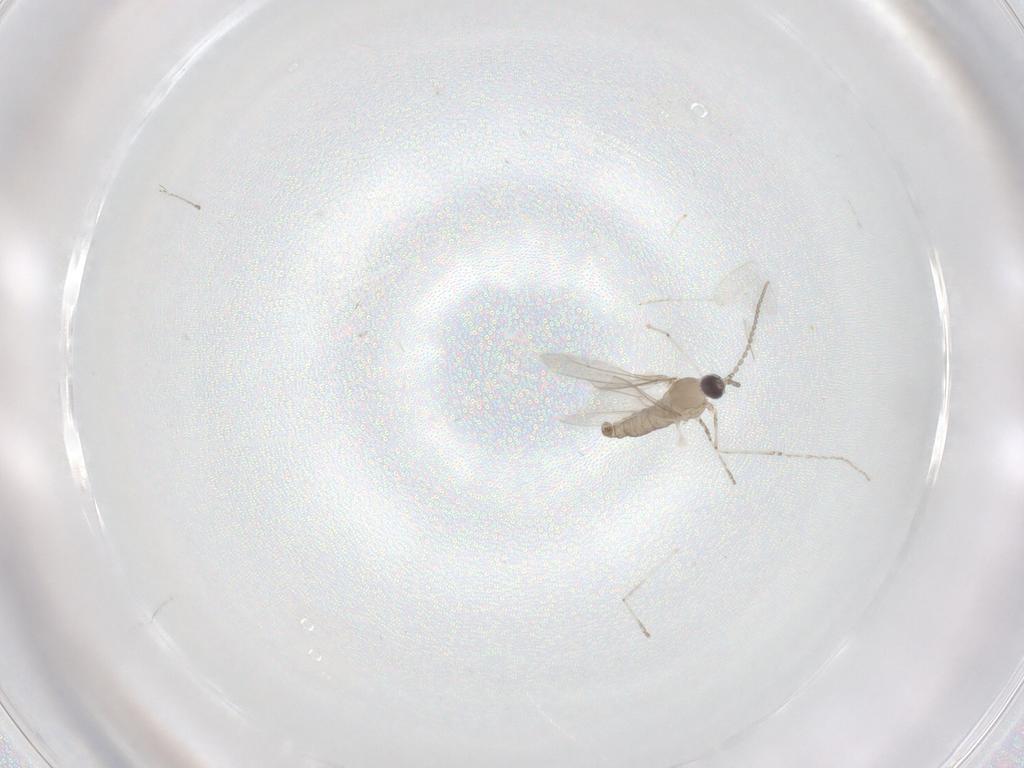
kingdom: Animalia
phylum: Arthropoda
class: Insecta
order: Diptera
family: Cecidomyiidae
